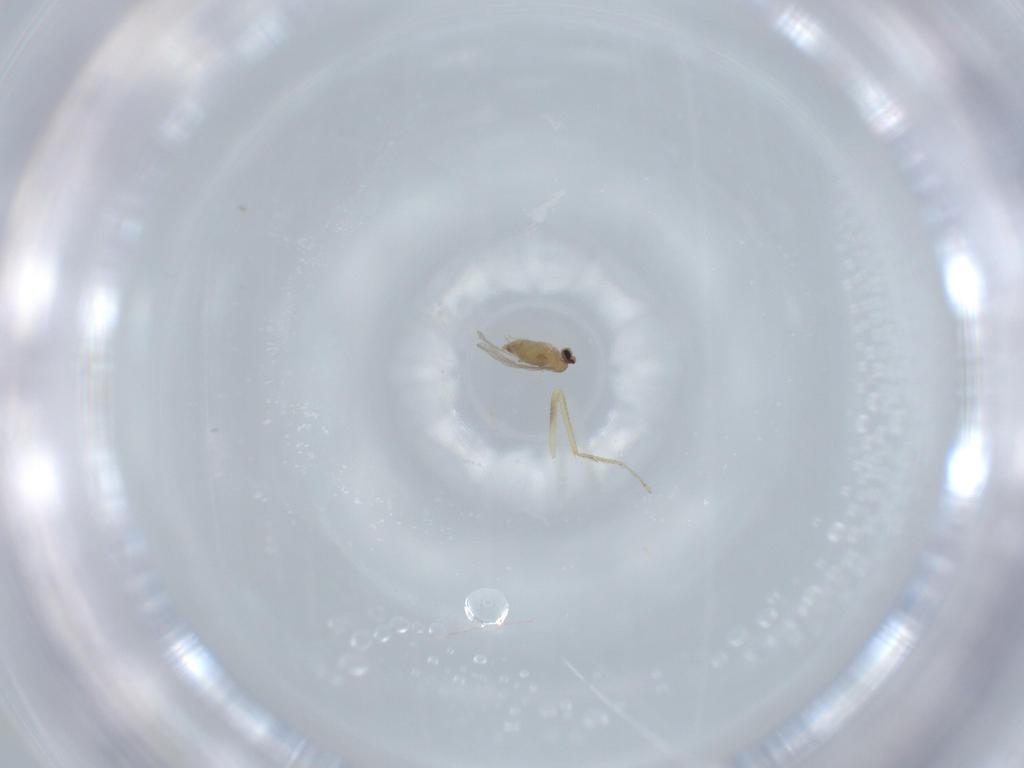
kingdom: Animalia
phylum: Arthropoda
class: Insecta
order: Diptera
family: Cecidomyiidae
